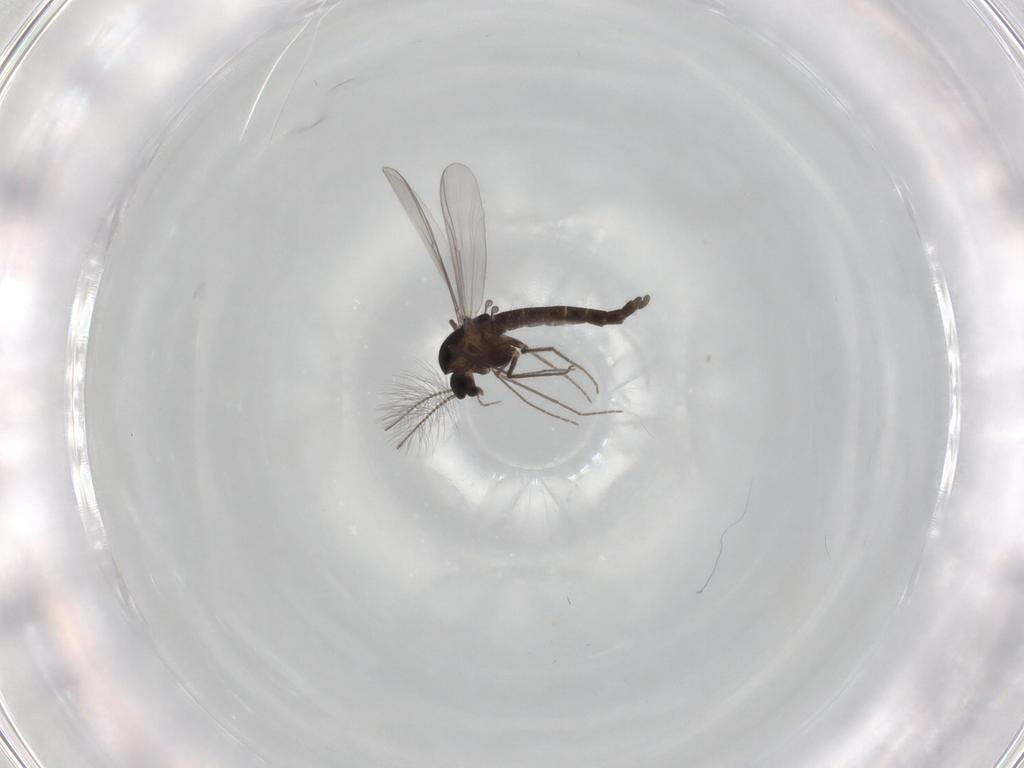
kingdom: Animalia
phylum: Arthropoda
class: Insecta
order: Diptera
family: Chironomidae
